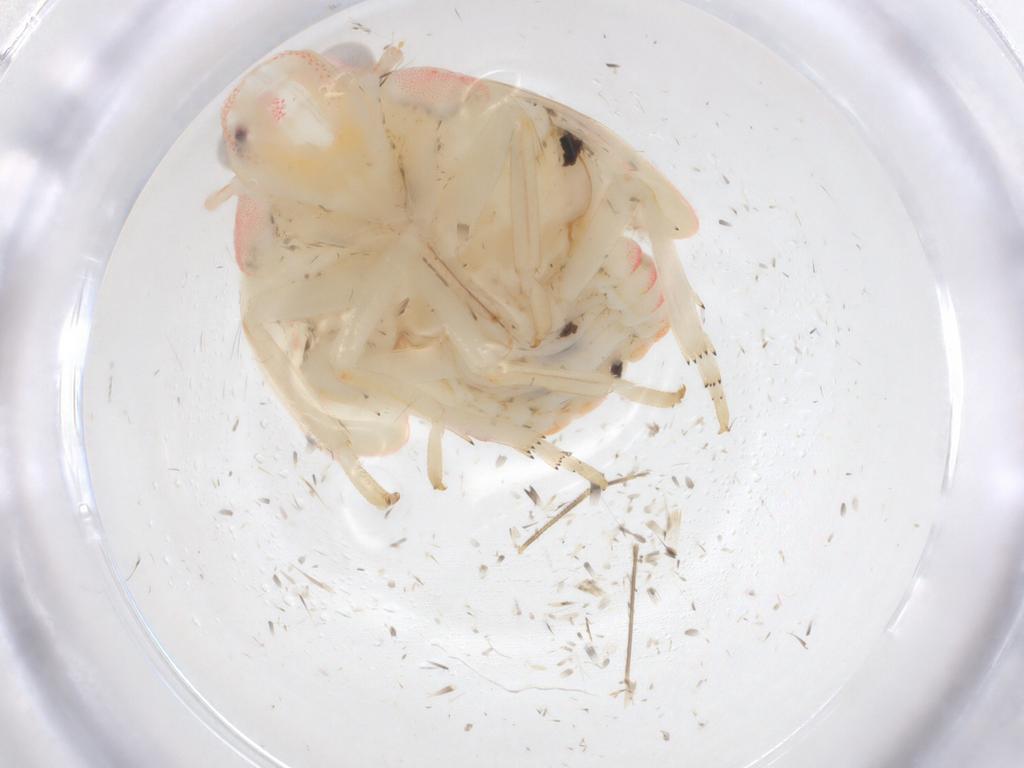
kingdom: Animalia
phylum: Arthropoda
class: Insecta
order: Hemiptera
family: Fulgoroidea_incertae_sedis
